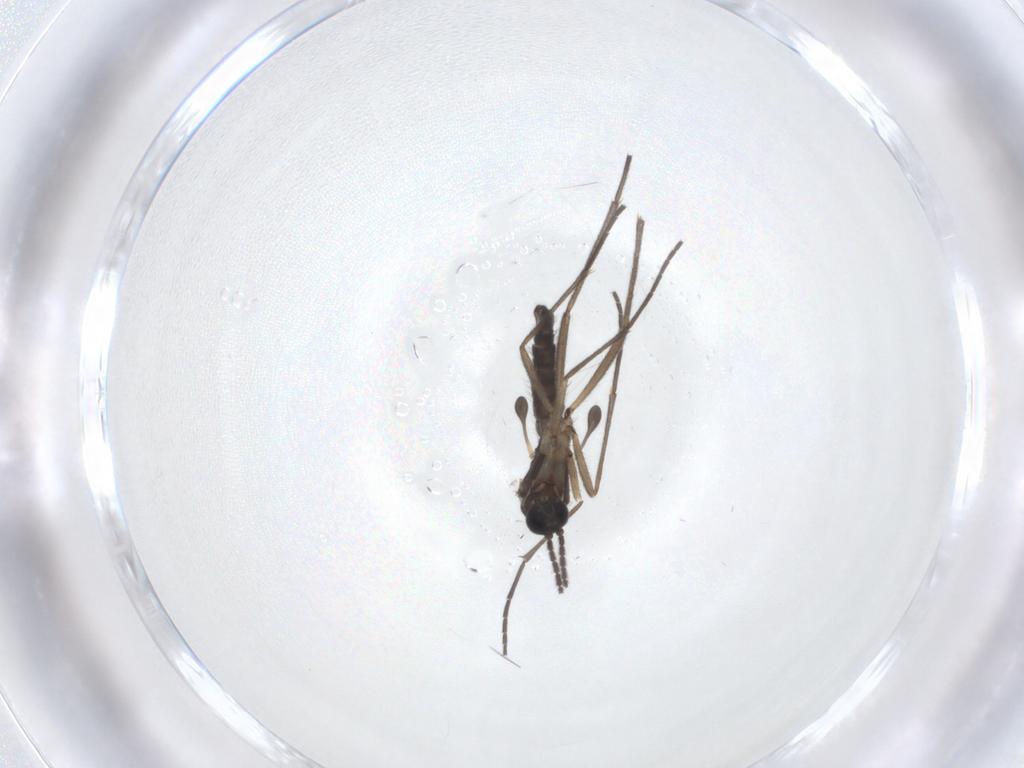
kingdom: Animalia
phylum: Arthropoda
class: Insecta
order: Diptera
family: Sciaridae
